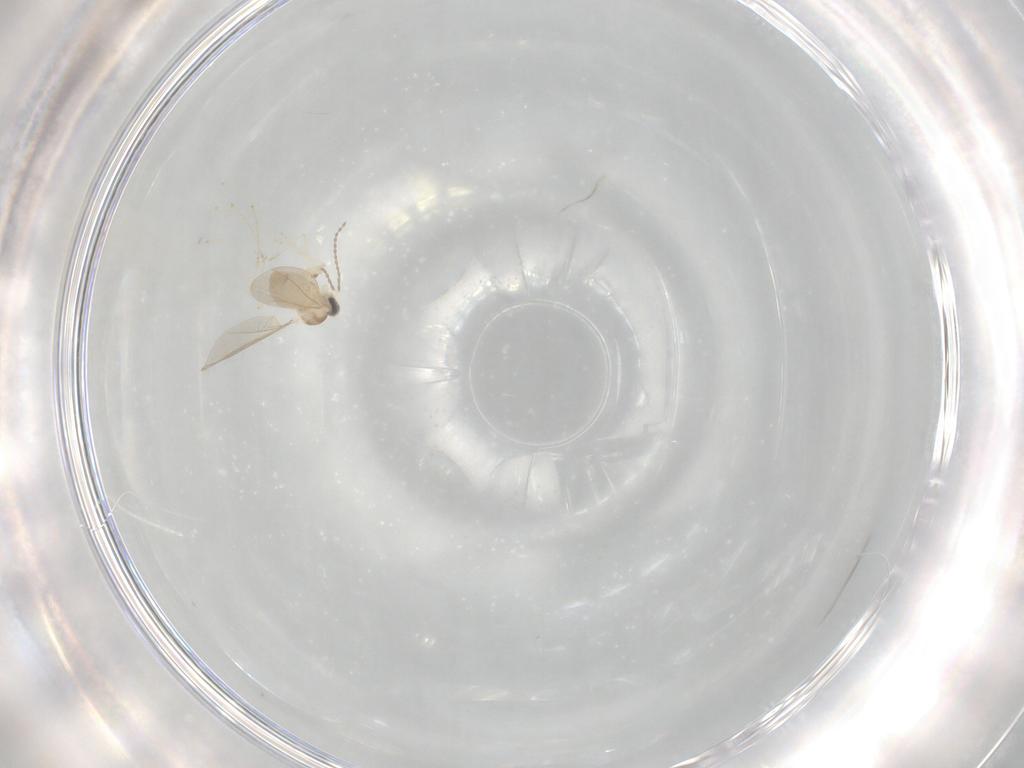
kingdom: Animalia
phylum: Arthropoda
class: Insecta
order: Diptera
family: Cecidomyiidae
